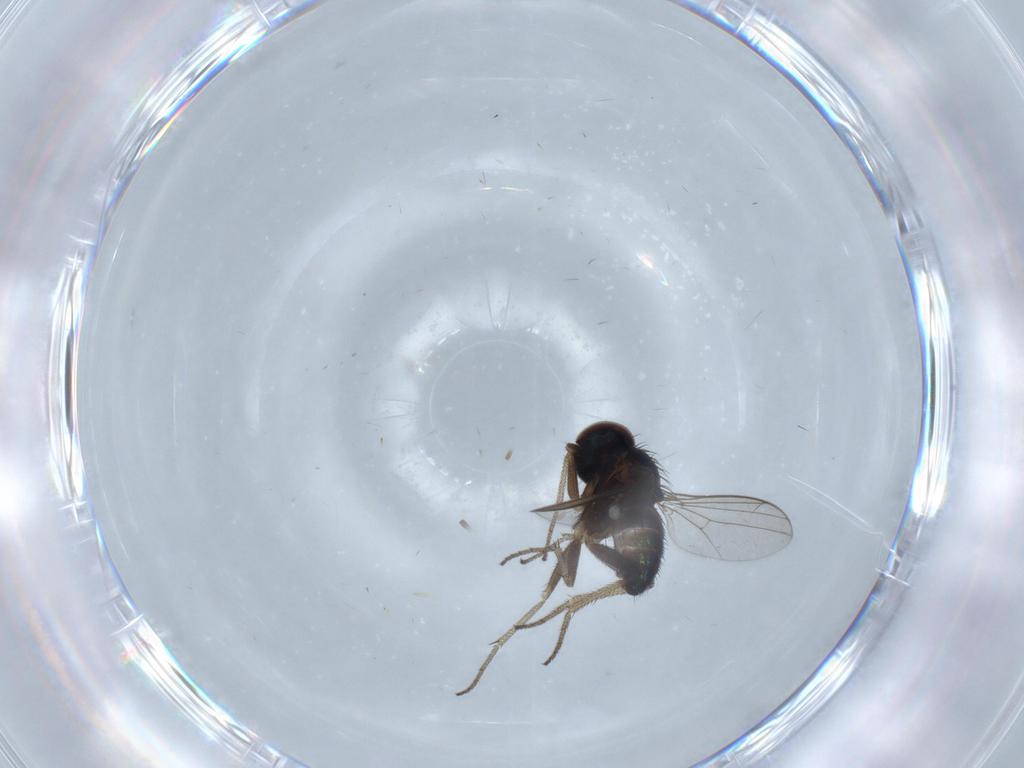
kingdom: Animalia
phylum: Arthropoda
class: Insecta
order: Diptera
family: Dolichopodidae
